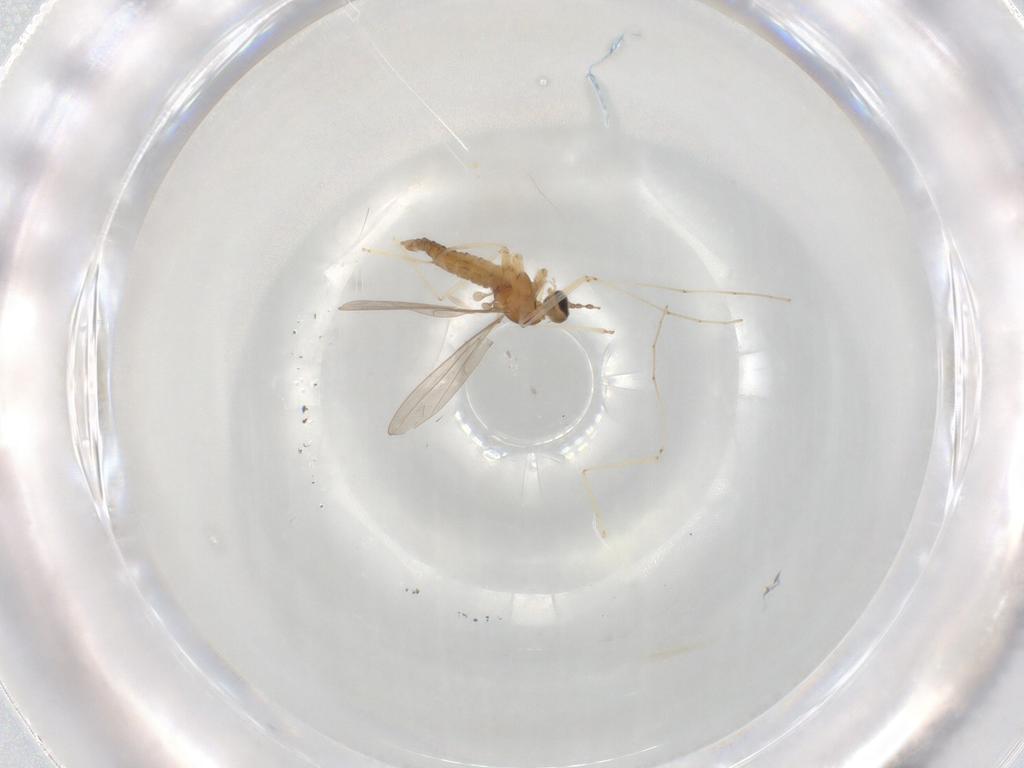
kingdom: Animalia
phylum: Arthropoda
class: Insecta
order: Diptera
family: Cecidomyiidae
